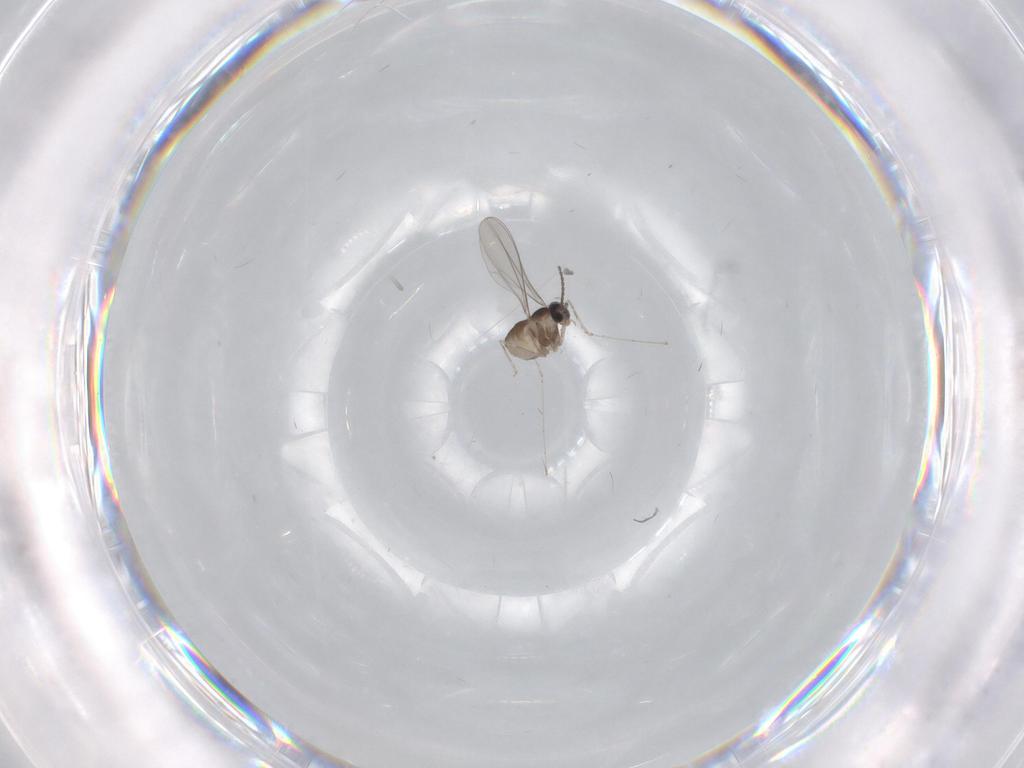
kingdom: Animalia
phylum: Arthropoda
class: Insecta
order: Diptera
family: Cecidomyiidae
